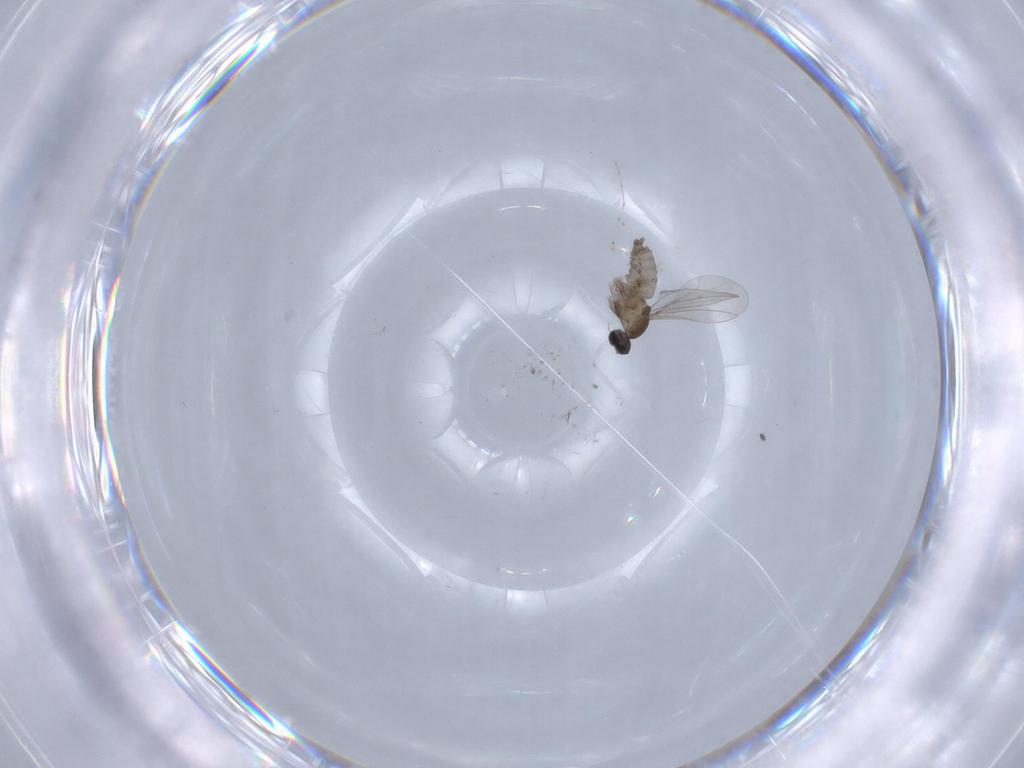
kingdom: Animalia
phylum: Arthropoda
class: Insecta
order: Diptera
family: Cecidomyiidae
